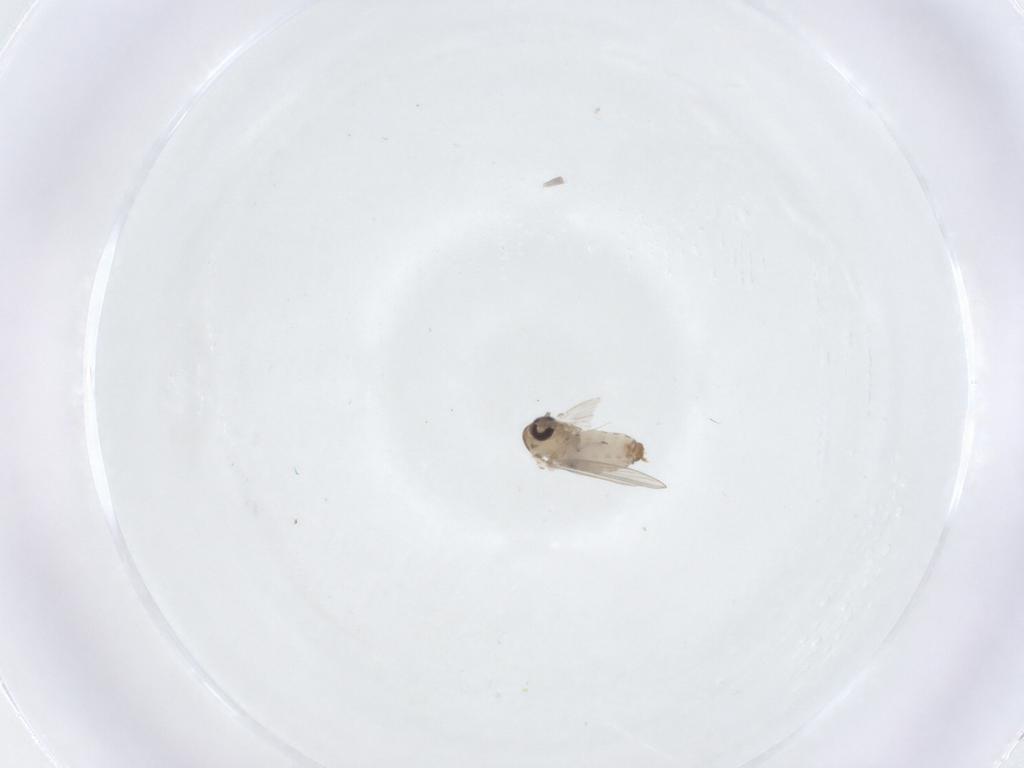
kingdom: Animalia
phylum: Arthropoda
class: Insecta
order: Diptera
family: Psychodidae
